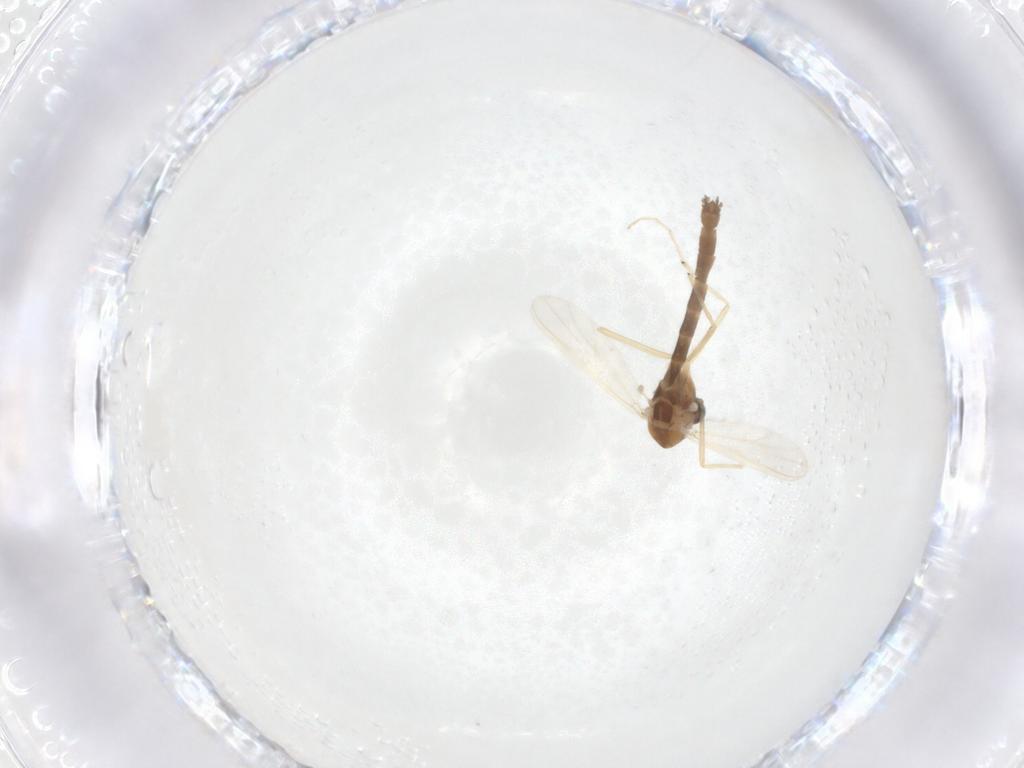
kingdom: Animalia
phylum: Arthropoda
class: Insecta
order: Diptera
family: Chironomidae
